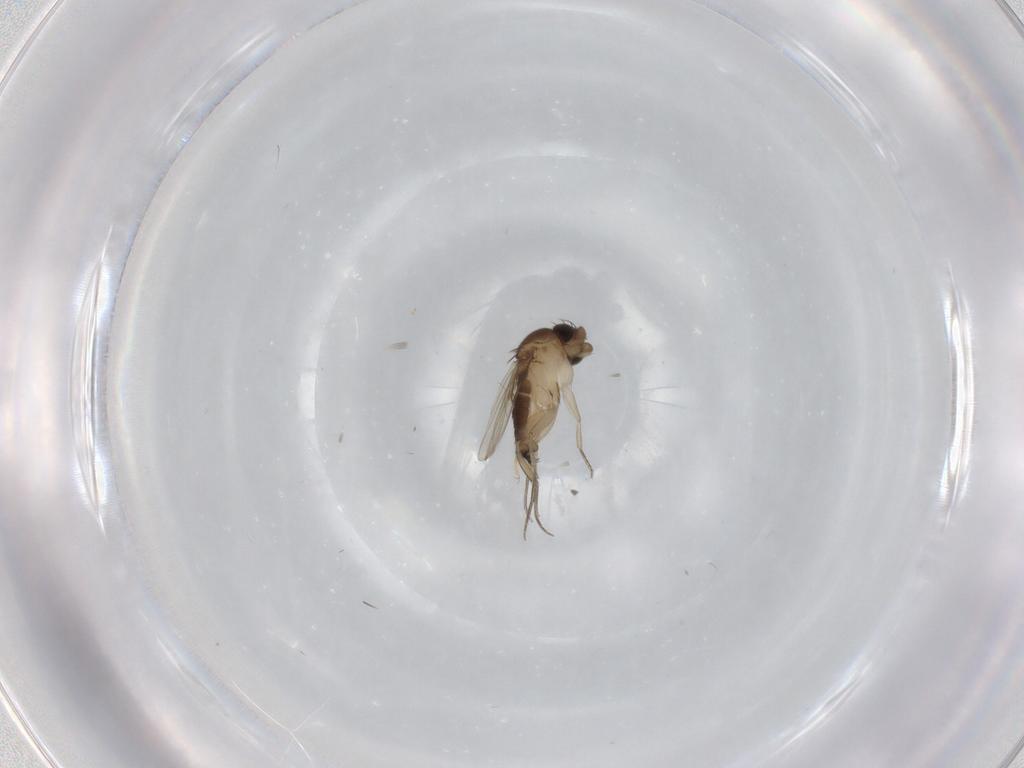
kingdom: Animalia
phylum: Arthropoda
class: Insecta
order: Diptera
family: Phoridae
